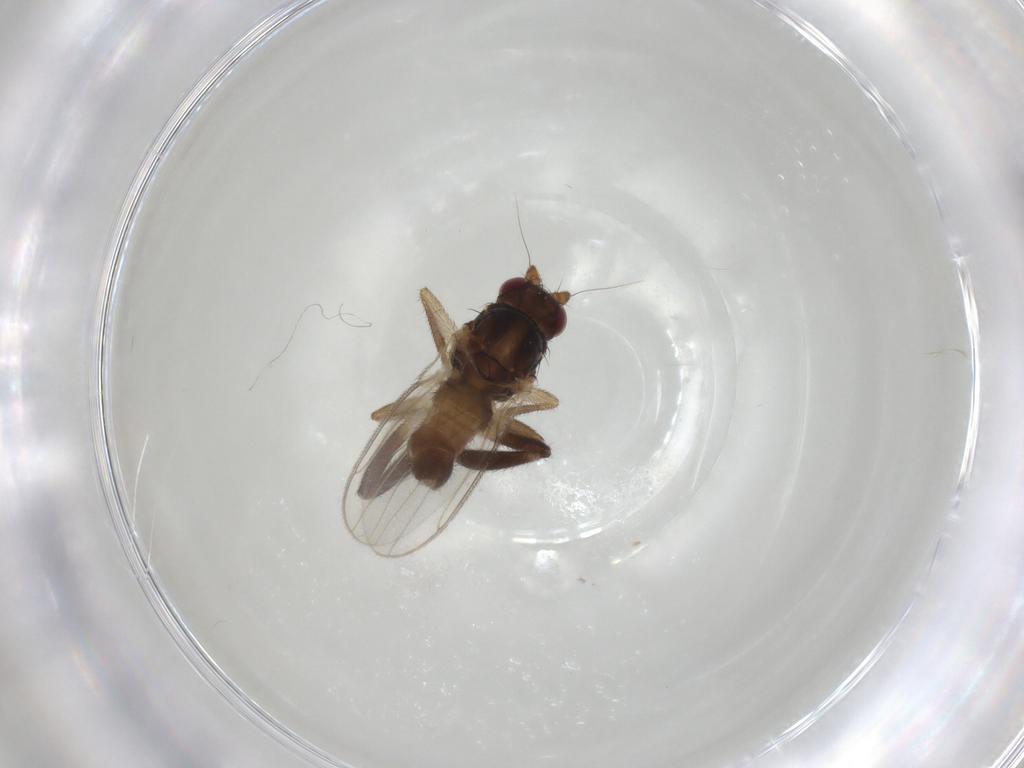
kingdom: Animalia
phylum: Arthropoda
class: Insecta
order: Diptera
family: Sphaeroceridae
